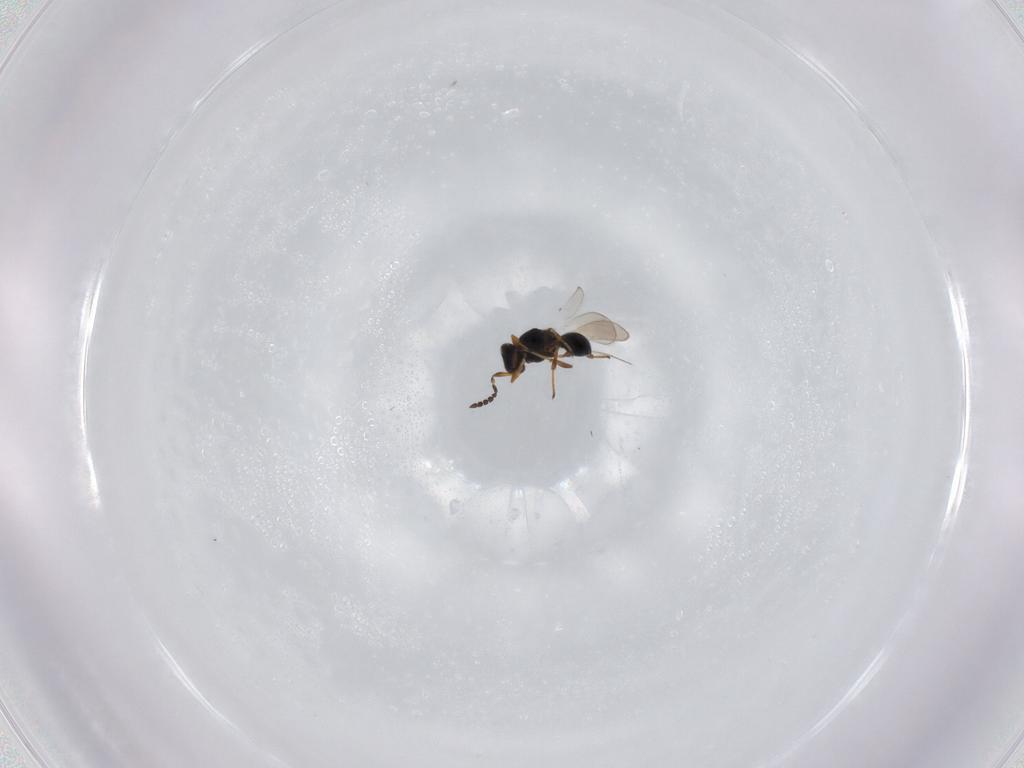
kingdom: Animalia
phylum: Arthropoda
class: Insecta
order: Hymenoptera
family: Platygastridae
